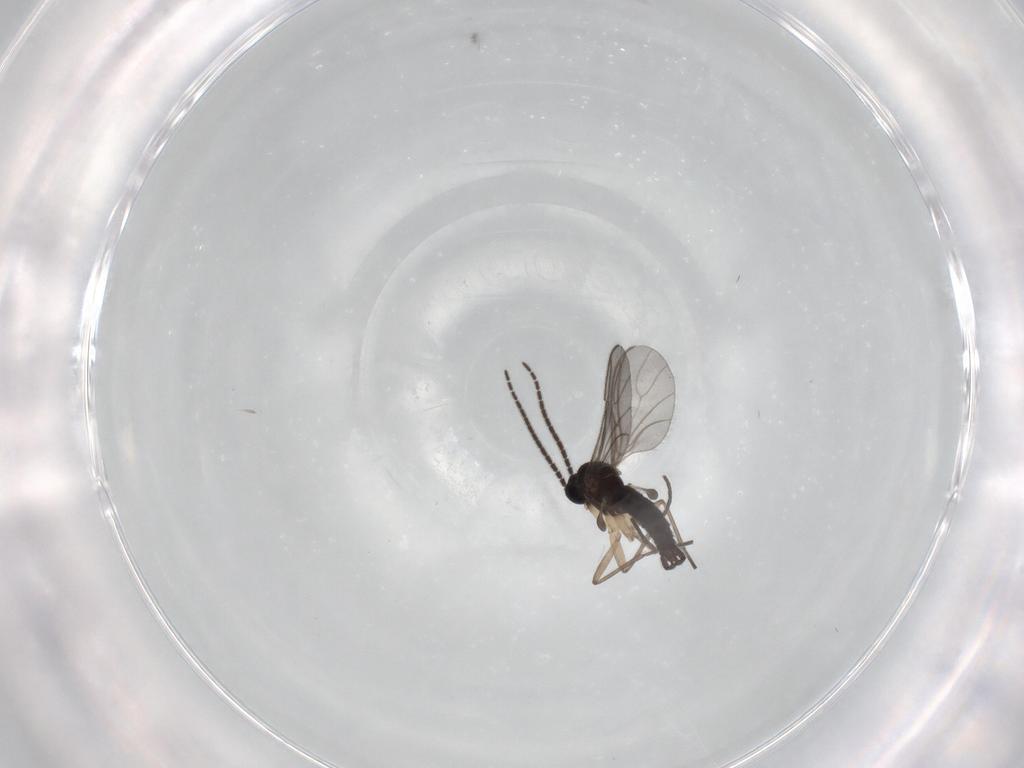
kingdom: Animalia
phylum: Arthropoda
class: Insecta
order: Diptera
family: Sciaridae
